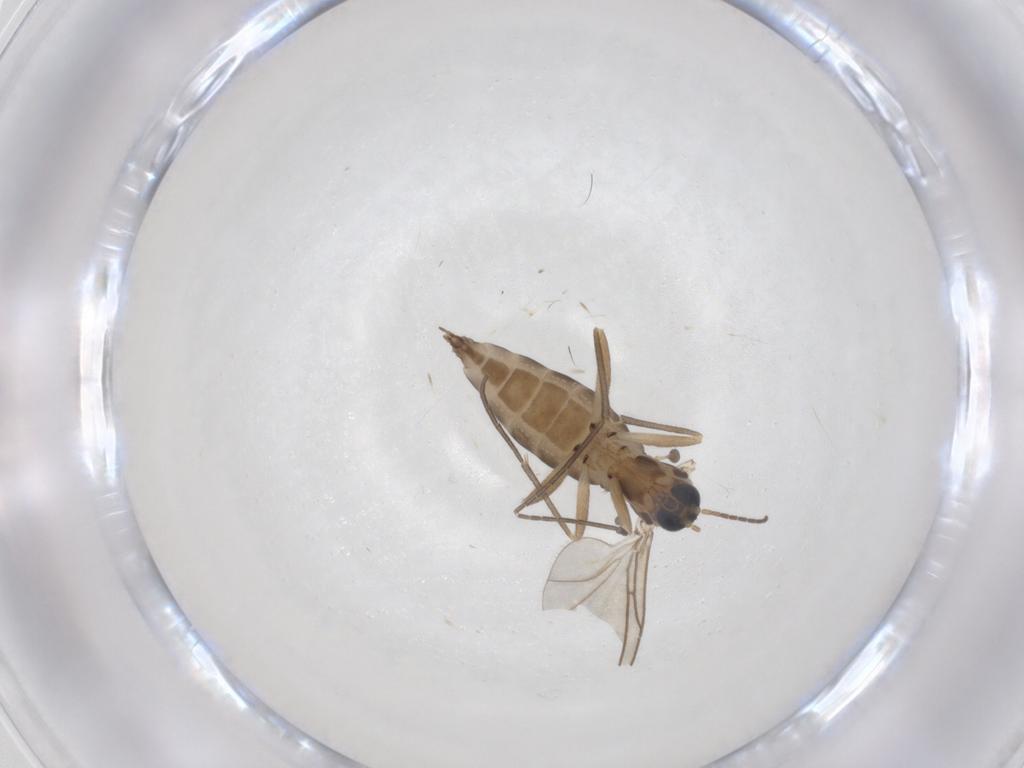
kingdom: Animalia
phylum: Arthropoda
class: Insecta
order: Diptera
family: Sciaridae
